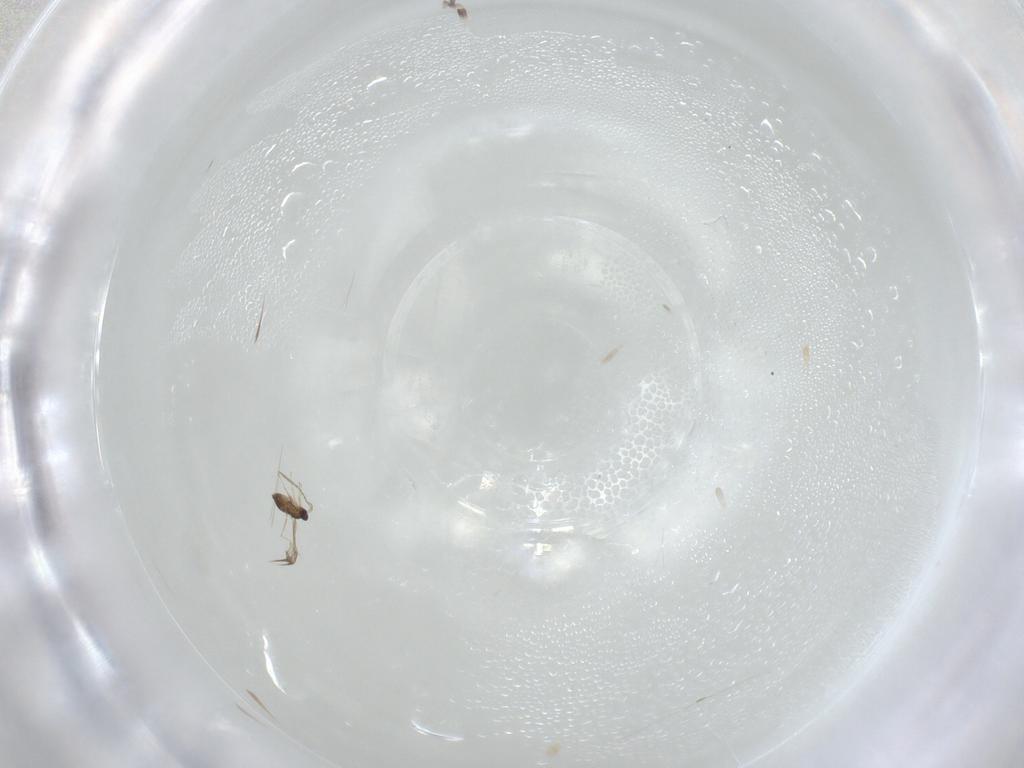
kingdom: Animalia
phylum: Arthropoda
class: Insecta
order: Hymenoptera
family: Mymaridae
